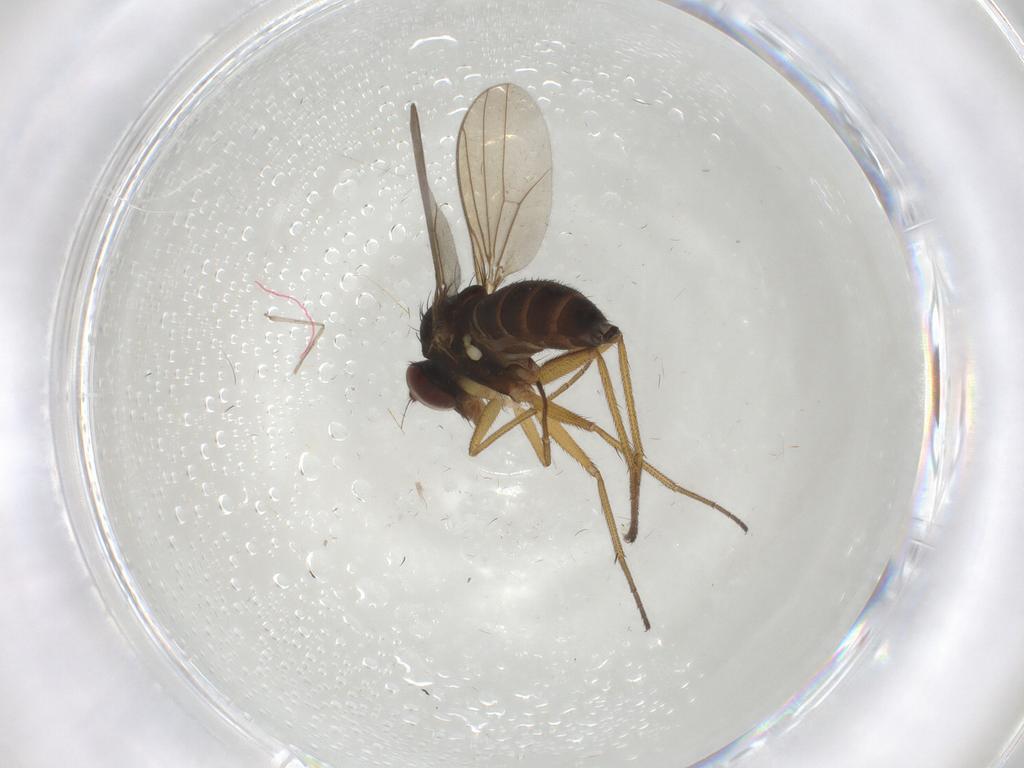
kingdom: Animalia
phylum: Arthropoda
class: Insecta
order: Diptera
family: Dolichopodidae
